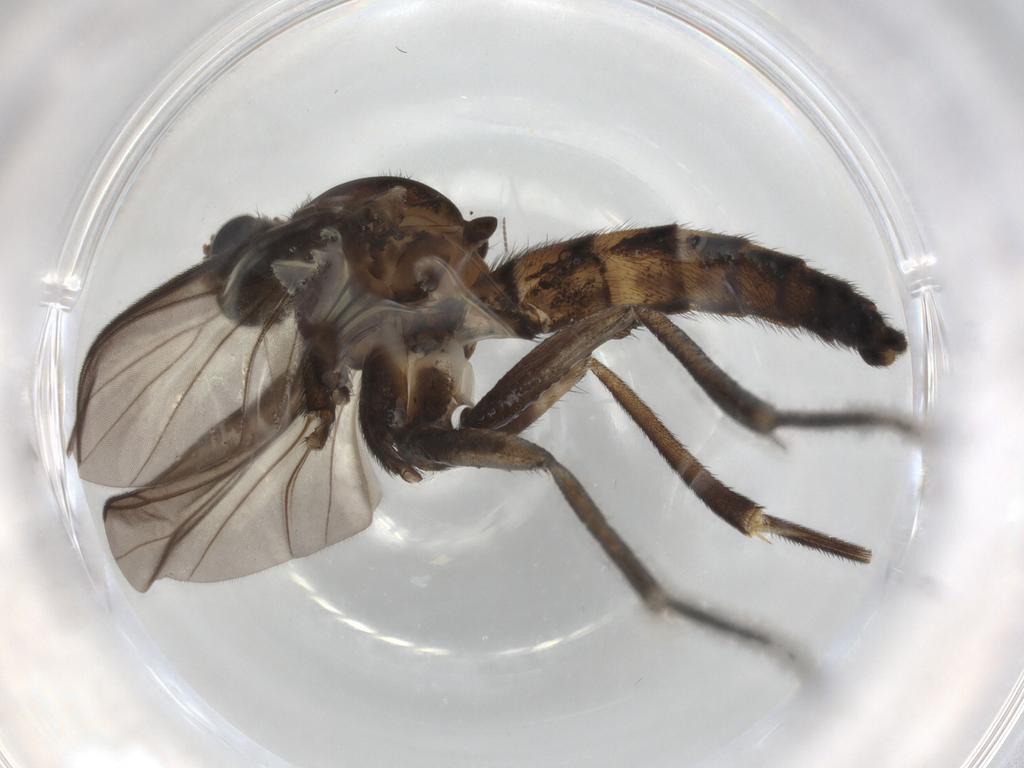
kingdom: Animalia
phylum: Arthropoda
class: Insecta
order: Diptera
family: Phoridae
